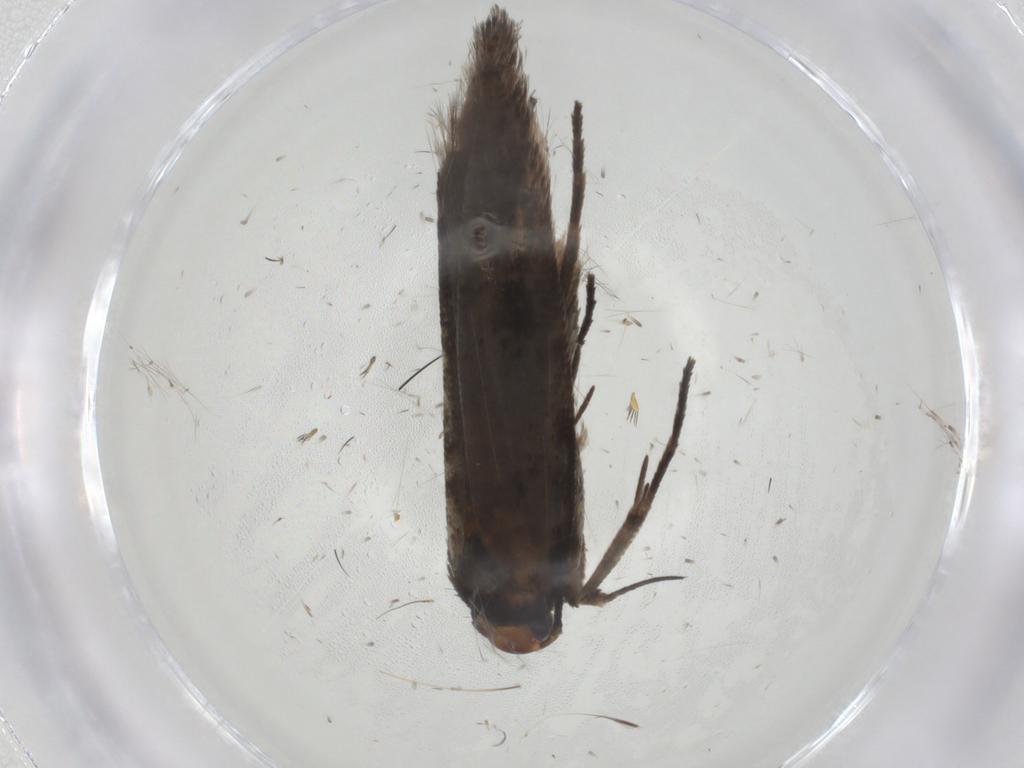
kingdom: Animalia
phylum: Arthropoda
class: Insecta
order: Lepidoptera
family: Gelechiidae
